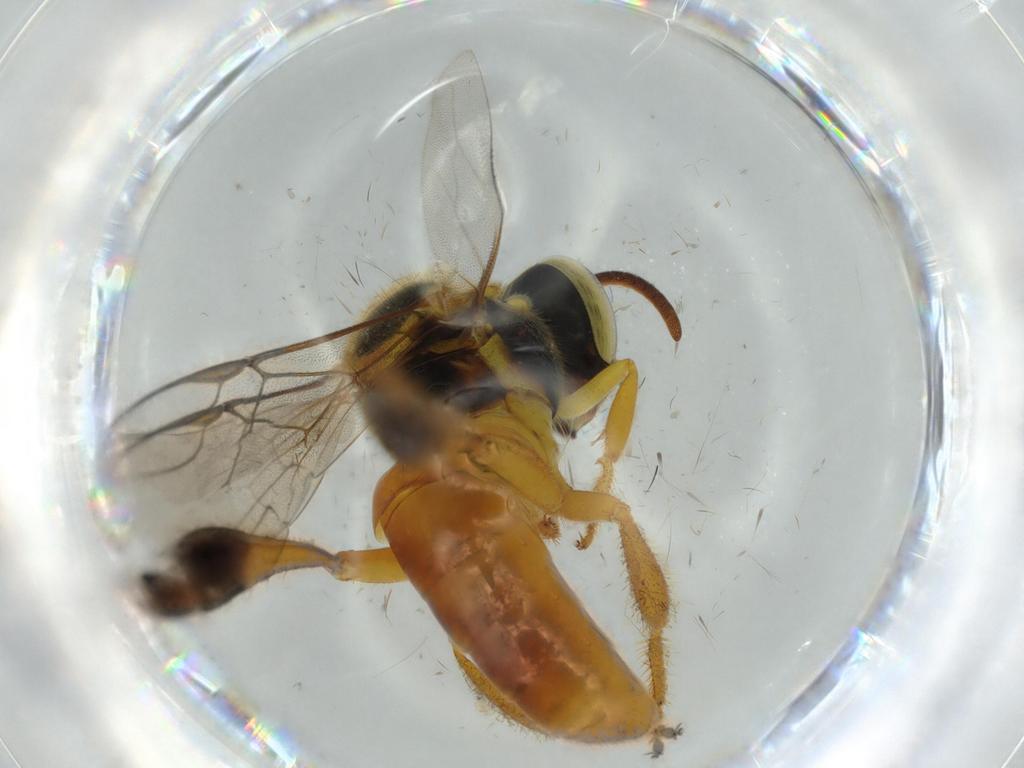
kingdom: Animalia
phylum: Arthropoda
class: Insecta
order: Hymenoptera
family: Apidae
